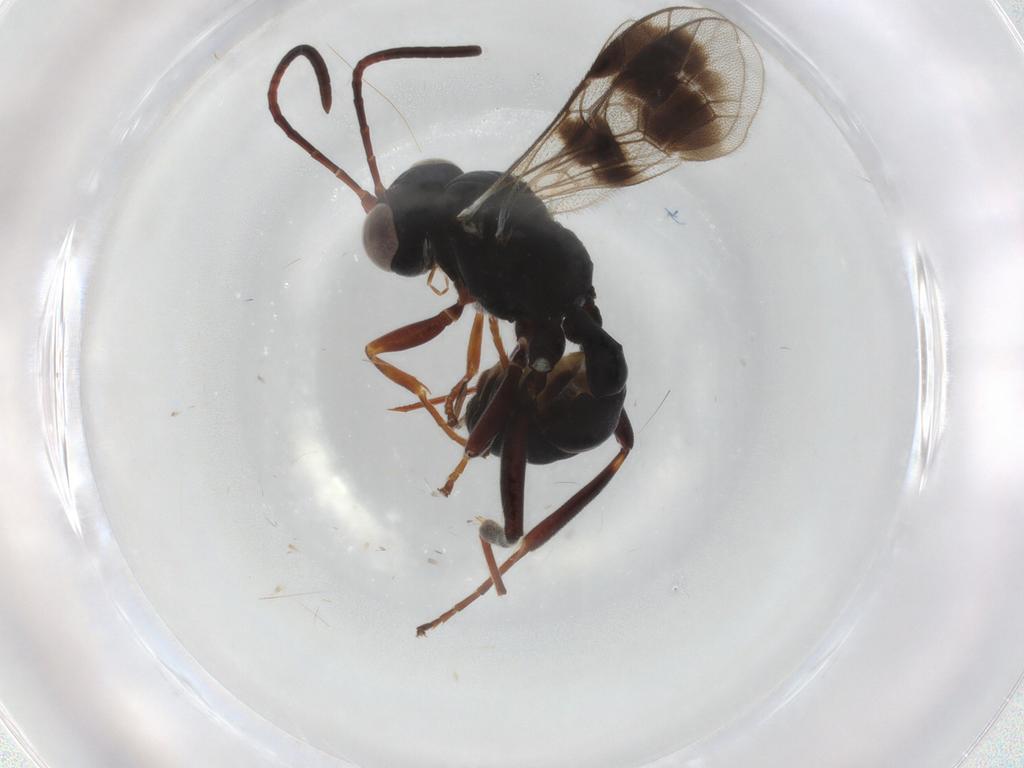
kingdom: Animalia
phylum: Arthropoda
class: Insecta
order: Hymenoptera
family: Ichneumonidae
